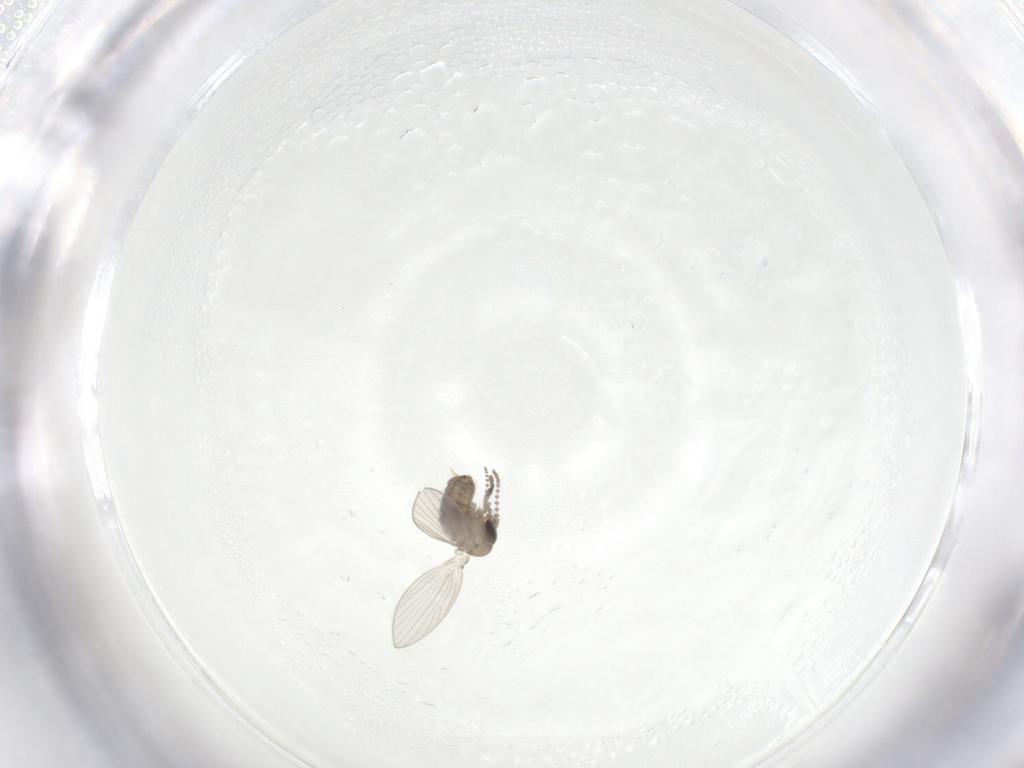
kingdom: Animalia
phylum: Arthropoda
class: Insecta
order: Diptera
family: Psychodidae
